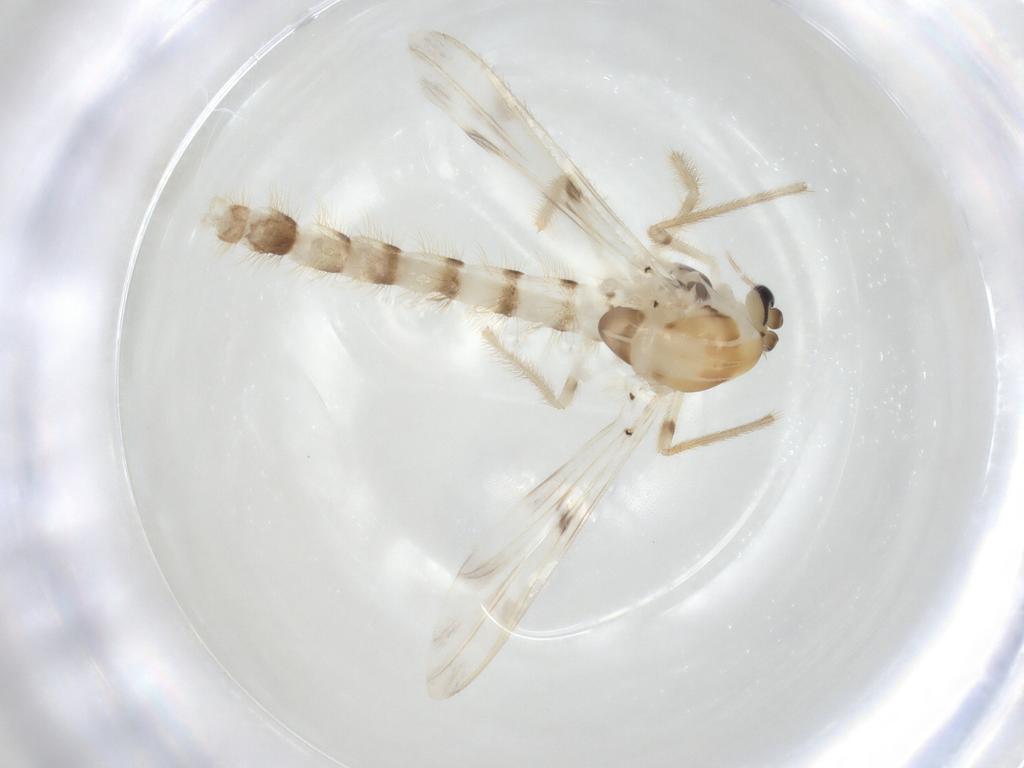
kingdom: Animalia
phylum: Arthropoda
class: Insecta
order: Diptera
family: Chironomidae
